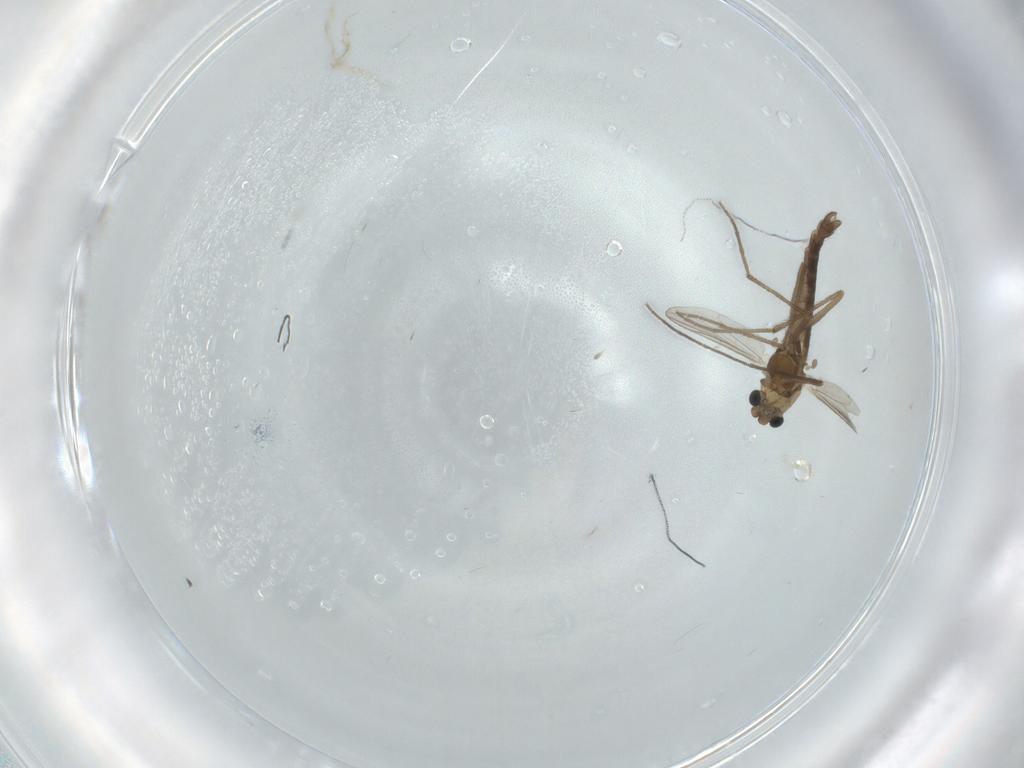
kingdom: Animalia
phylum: Arthropoda
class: Insecta
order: Diptera
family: Chironomidae
